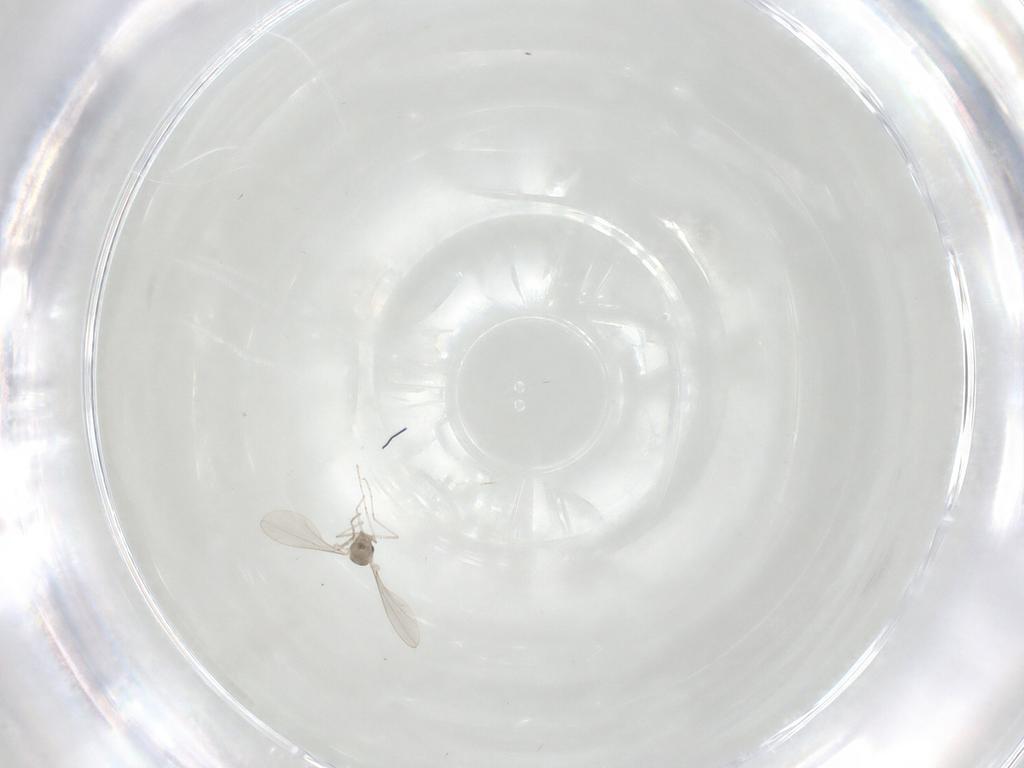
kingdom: Animalia
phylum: Arthropoda
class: Insecta
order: Diptera
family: Cecidomyiidae
